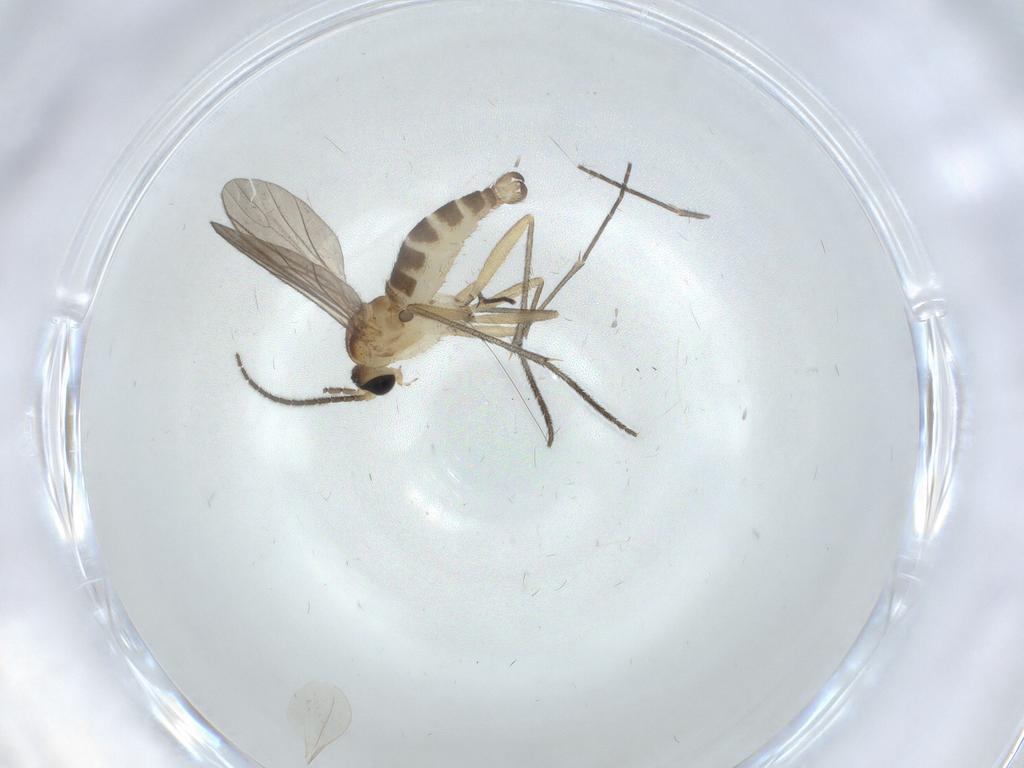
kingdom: Animalia
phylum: Arthropoda
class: Insecta
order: Diptera
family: Sciaridae
